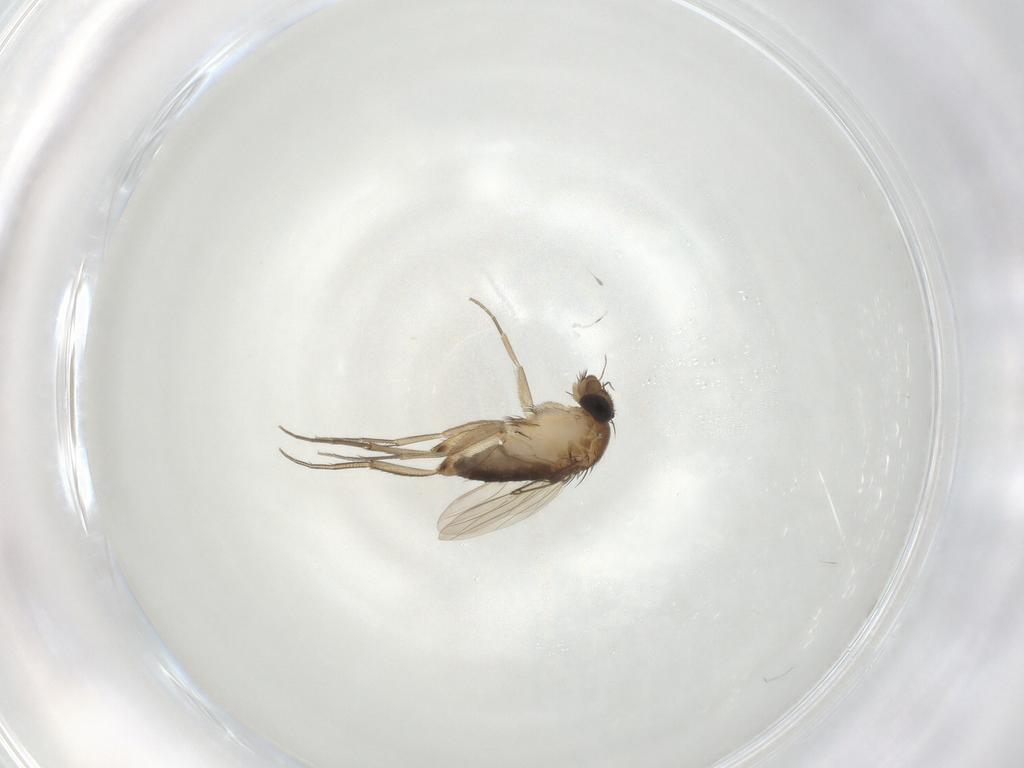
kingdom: Animalia
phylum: Arthropoda
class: Insecta
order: Diptera
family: Phoridae
